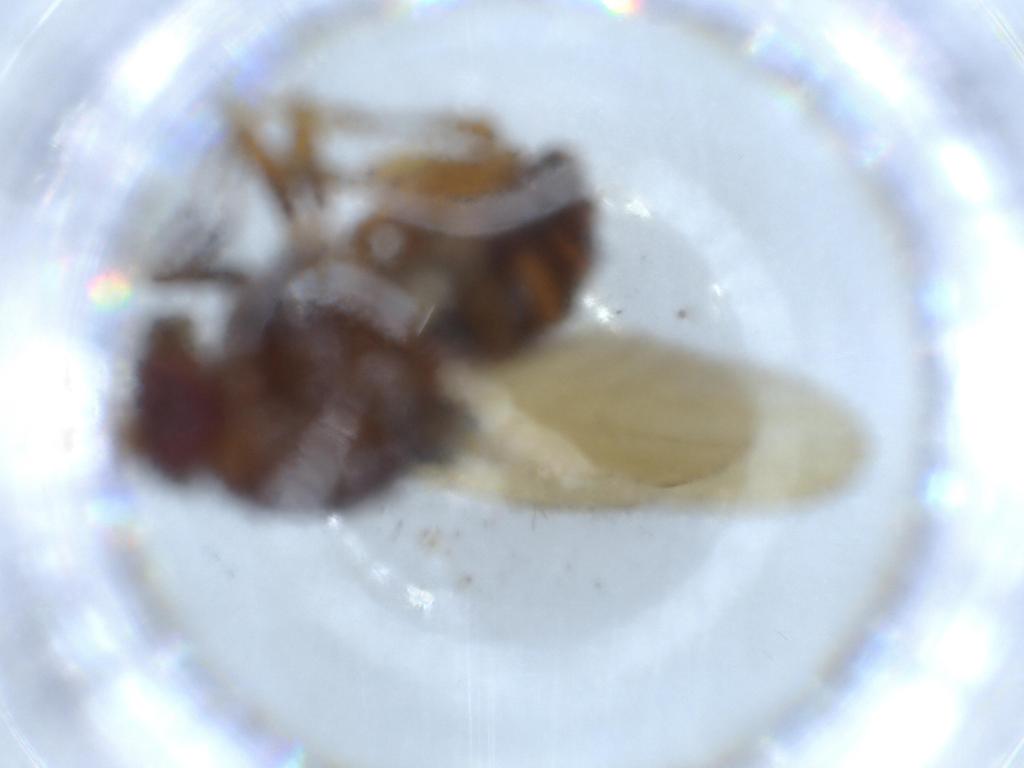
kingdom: Animalia
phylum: Arthropoda
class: Insecta
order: Diptera
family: Cecidomyiidae
